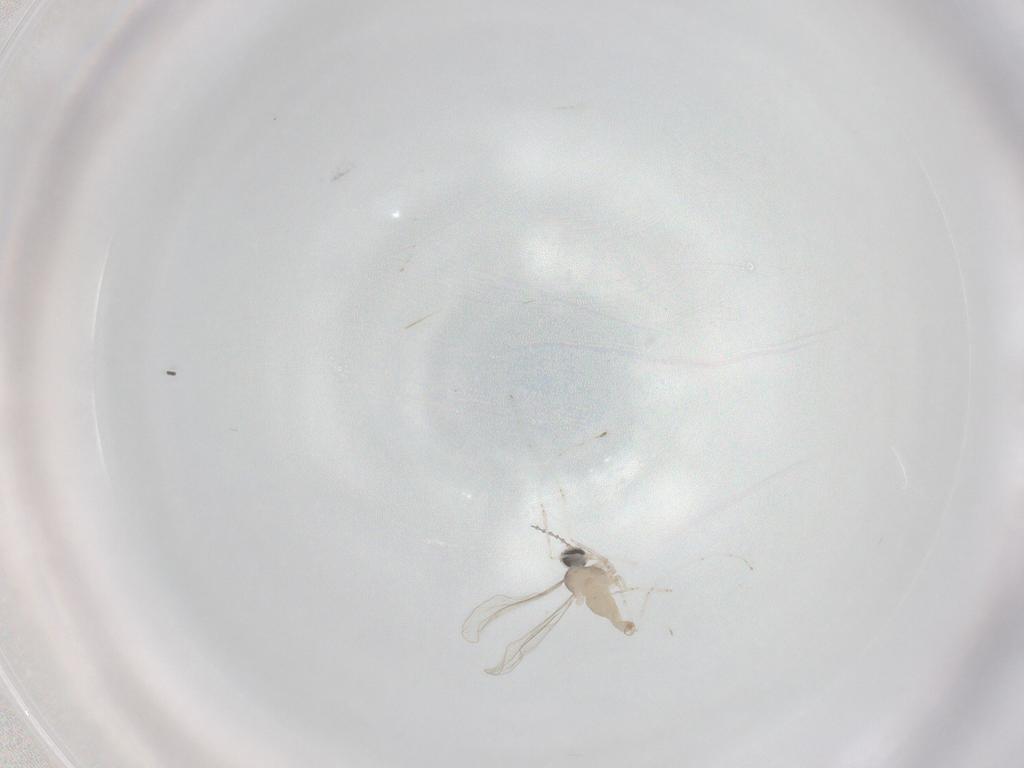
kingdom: Animalia
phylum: Arthropoda
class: Insecta
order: Diptera
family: Cecidomyiidae
